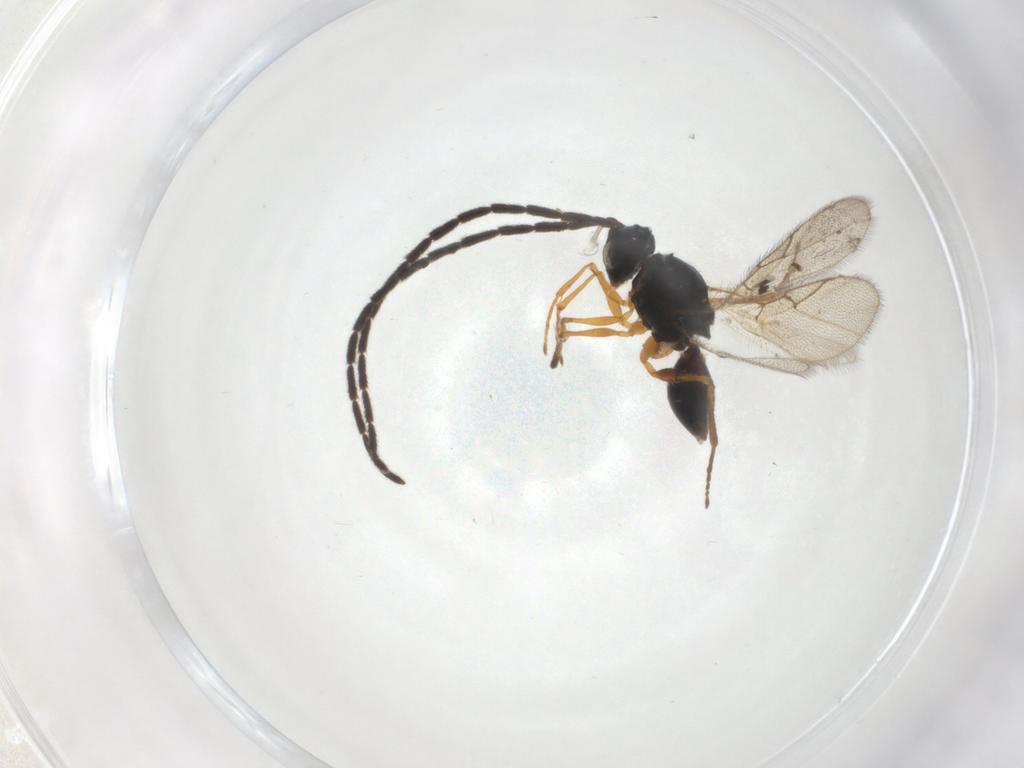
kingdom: Animalia
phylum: Arthropoda
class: Insecta
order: Hymenoptera
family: Figitidae
